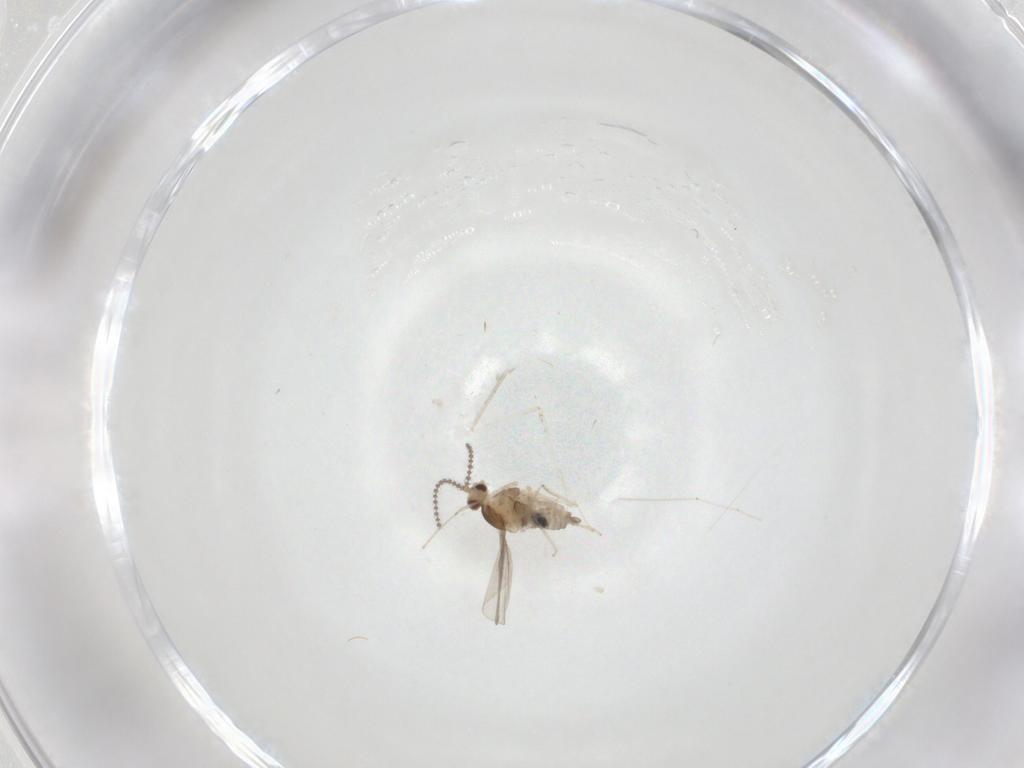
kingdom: Animalia
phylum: Arthropoda
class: Insecta
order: Diptera
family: Cecidomyiidae
